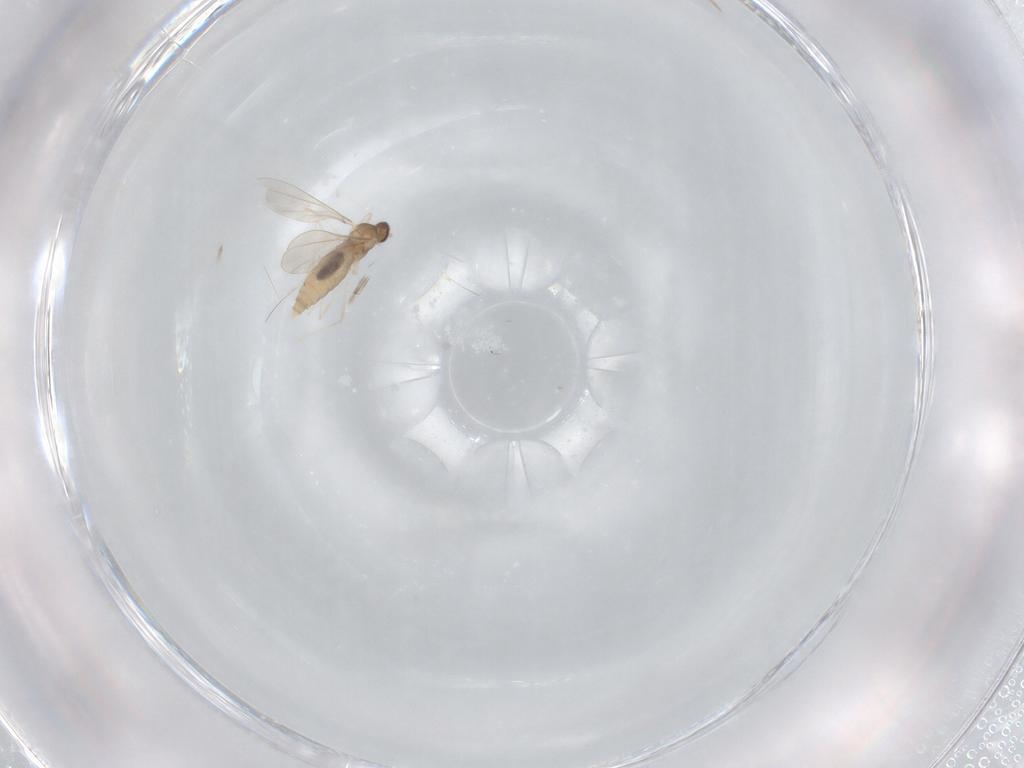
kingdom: Animalia
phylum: Arthropoda
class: Insecta
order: Diptera
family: Cecidomyiidae
